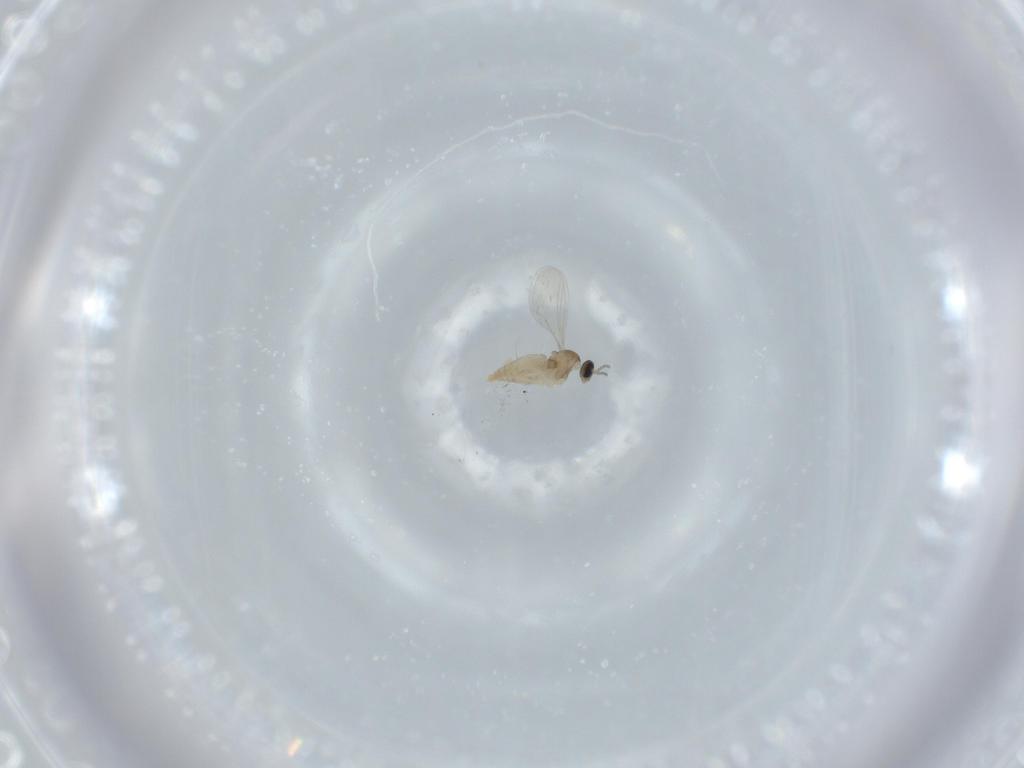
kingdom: Animalia
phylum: Arthropoda
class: Insecta
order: Diptera
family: Cecidomyiidae
